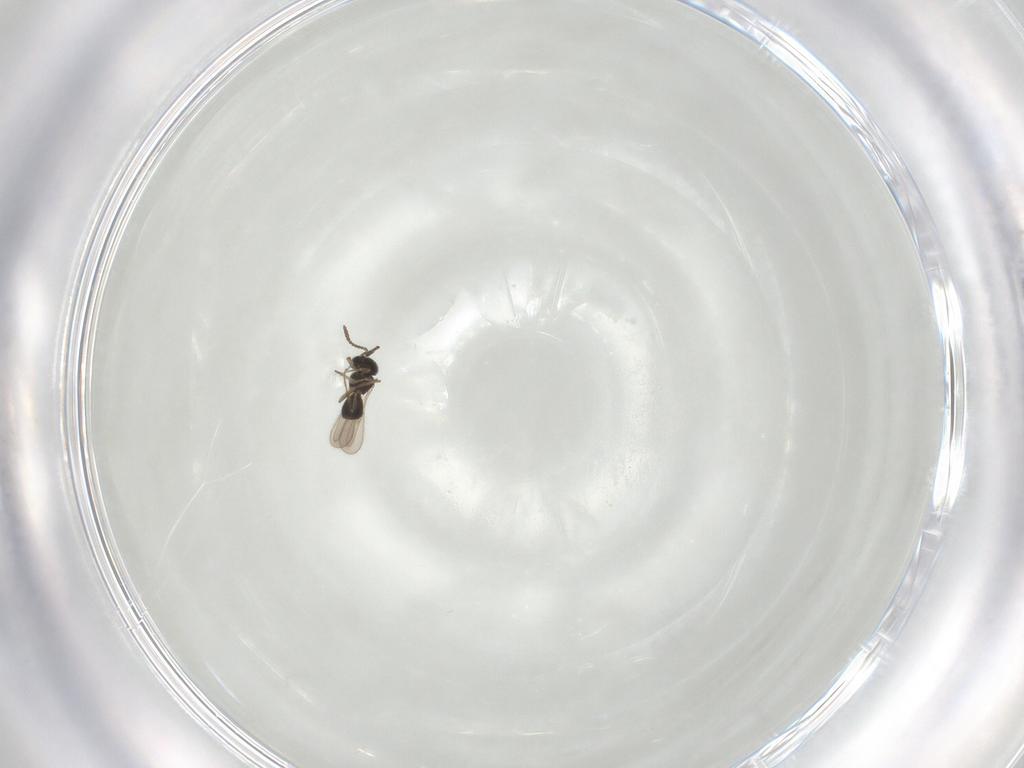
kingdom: Animalia
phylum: Arthropoda
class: Insecta
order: Hymenoptera
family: Scelionidae
